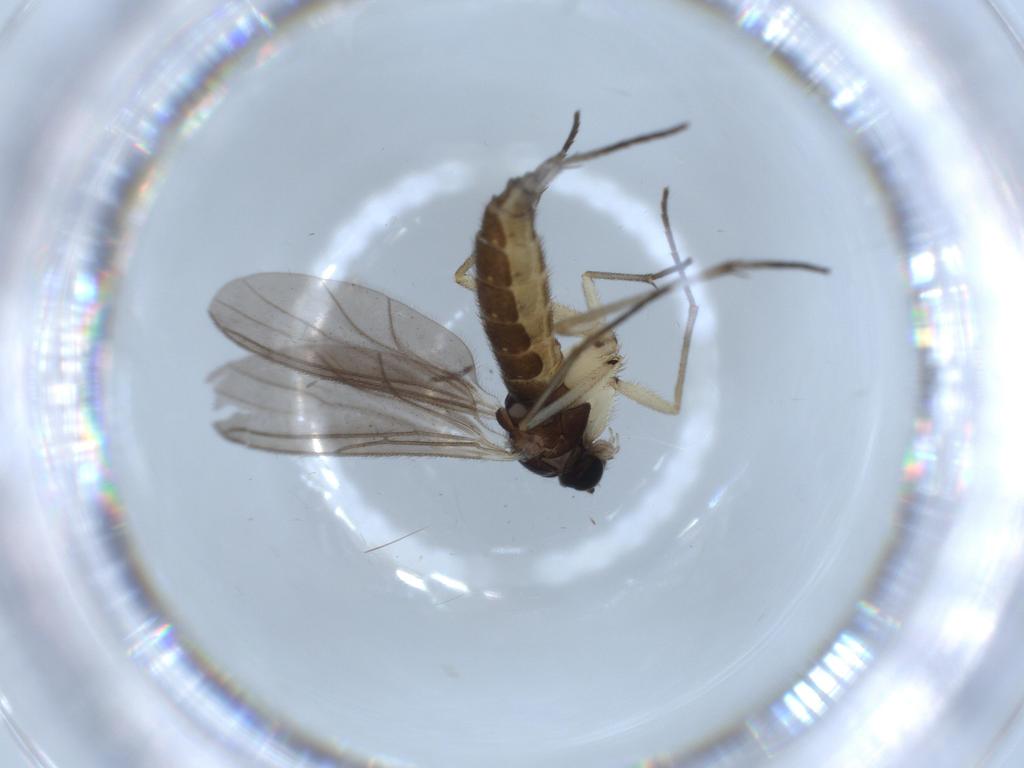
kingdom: Animalia
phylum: Arthropoda
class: Insecta
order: Diptera
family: Sciaridae
